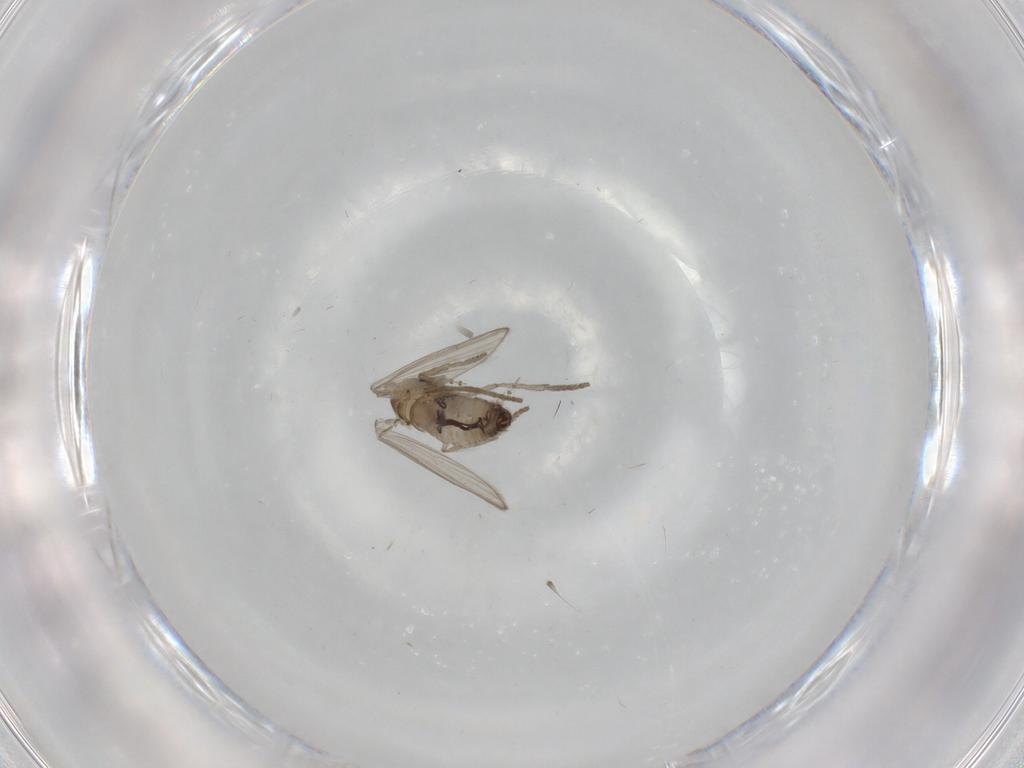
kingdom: Animalia
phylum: Arthropoda
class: Insecta
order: Diptera
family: Psychodidae
